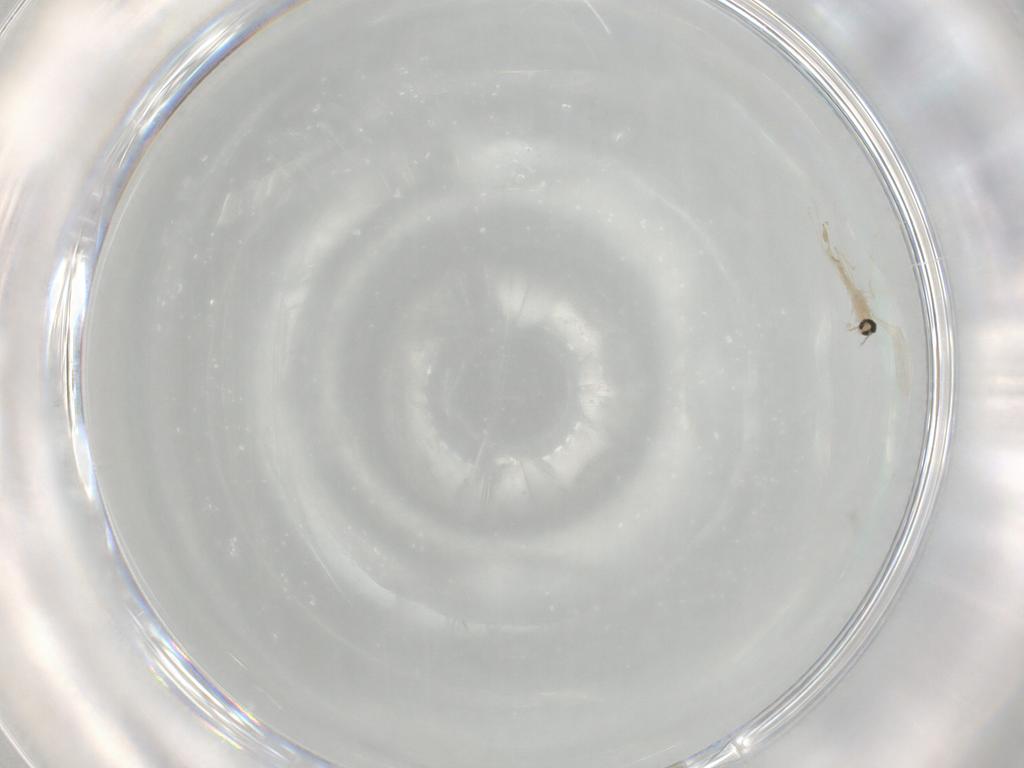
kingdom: Animalia
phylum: Arthropoda
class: Insecta
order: Diptera
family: Cecidomyiidae
